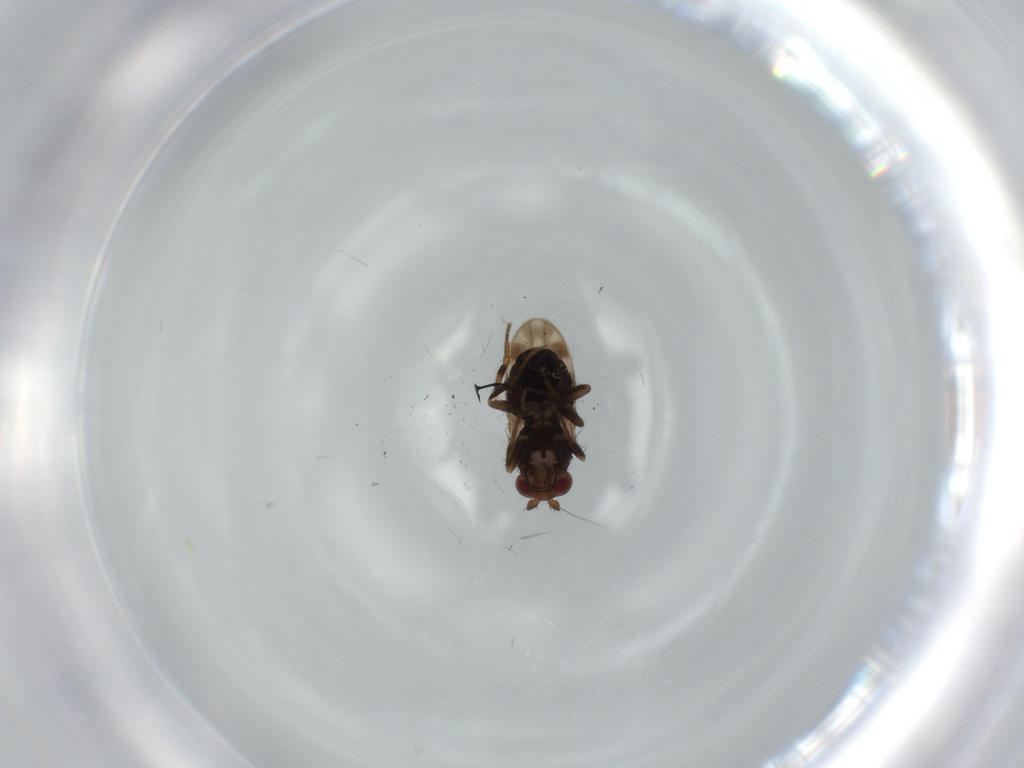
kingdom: Animalia
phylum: Arthropoda
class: Insecta
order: Diptera
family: Sphaeroceridae
